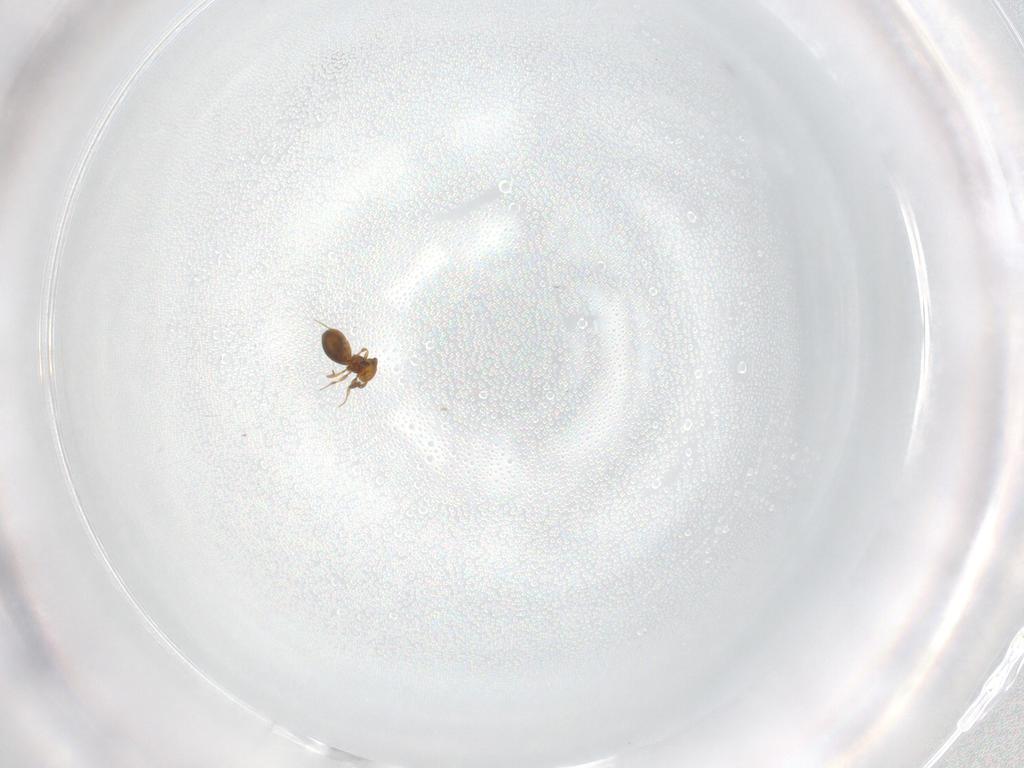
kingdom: Animalia
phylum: Arthropoda
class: Insecta
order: Hymenoptera
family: Platygastridae
